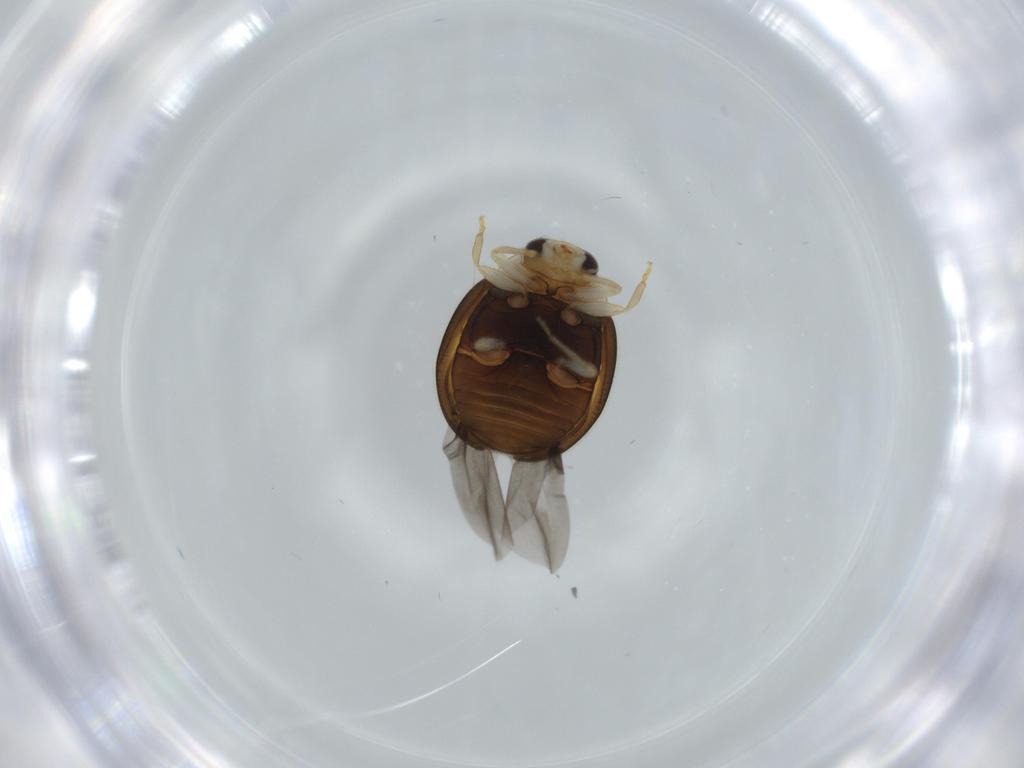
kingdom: Animalia
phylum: Arthropoda
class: Insecta
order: Coleoptera
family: Coccinellidae
